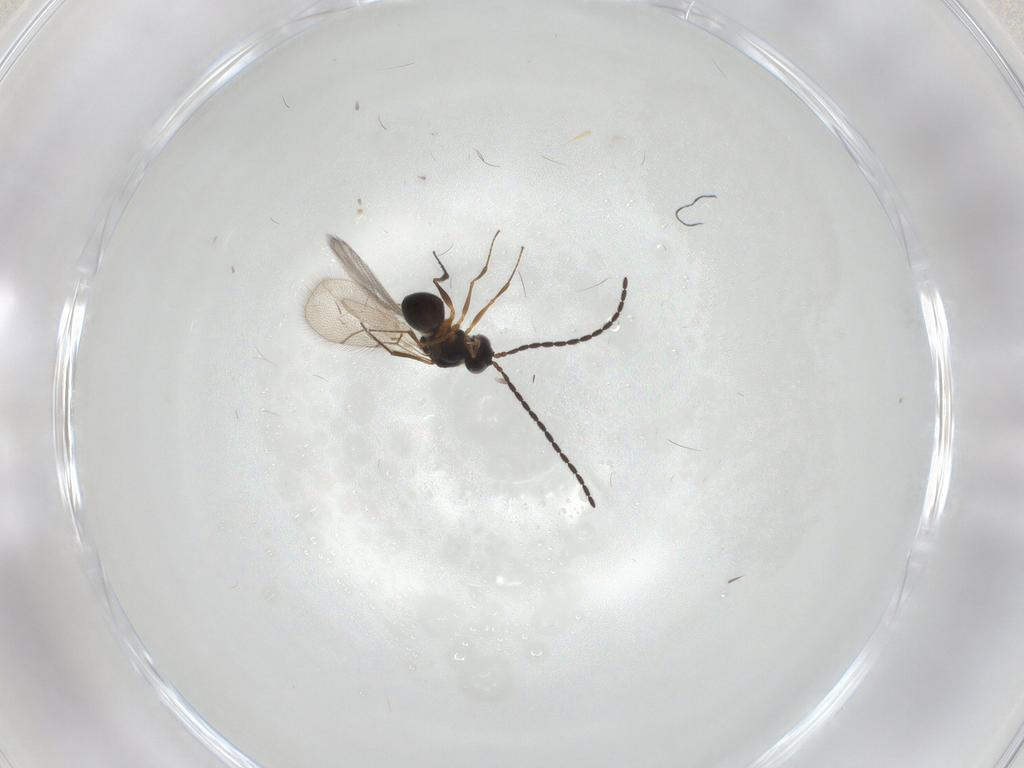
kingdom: Animalia
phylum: Arthropoda
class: Insecta
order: Hymenoptera
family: Figitidae
